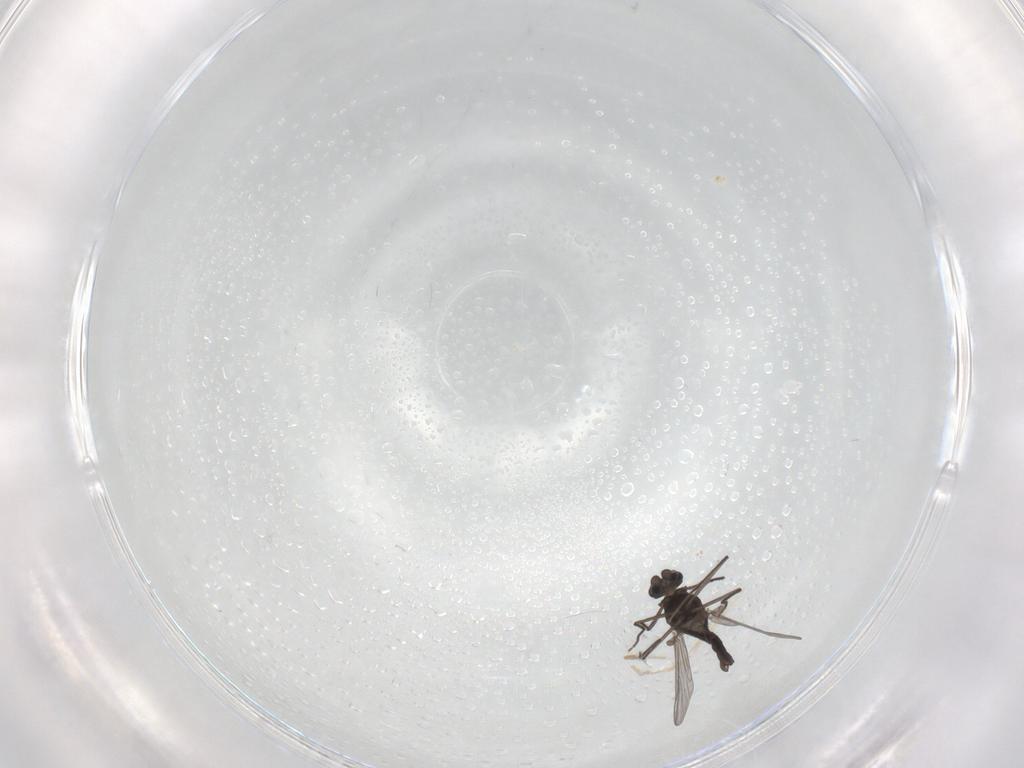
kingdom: Animalia
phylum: Arthropoda
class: Insecta
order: Diptera
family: Phoridae
